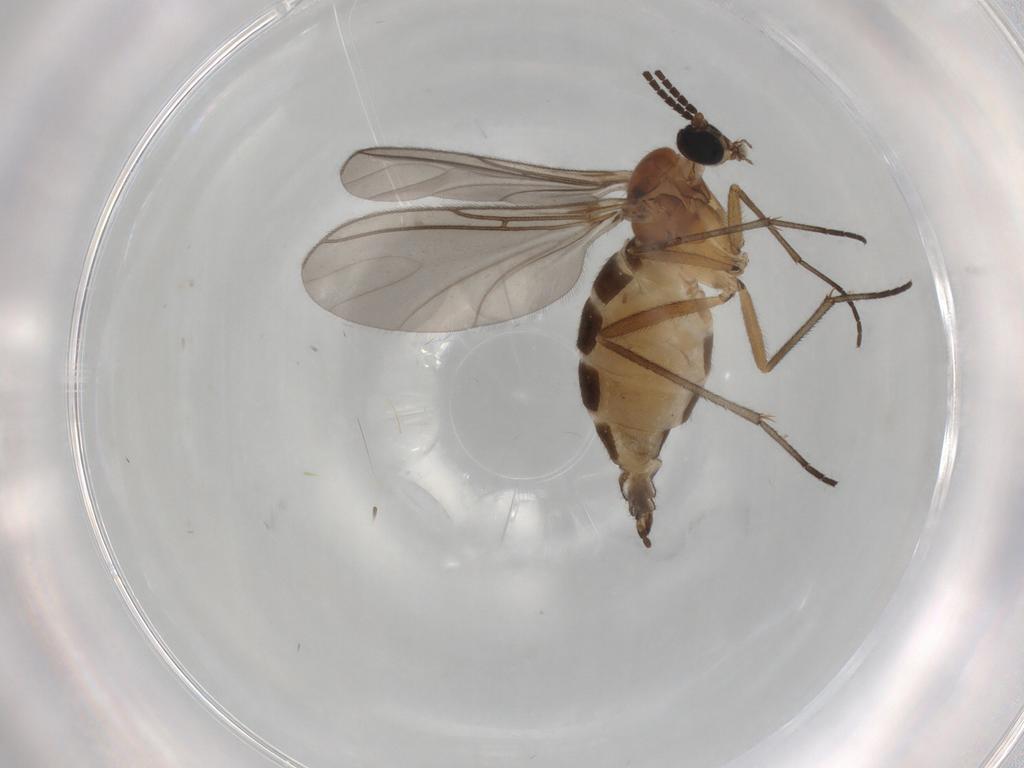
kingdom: Animalia
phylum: Arthropoda
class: Insecta
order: Diptera
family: Sciaridae
